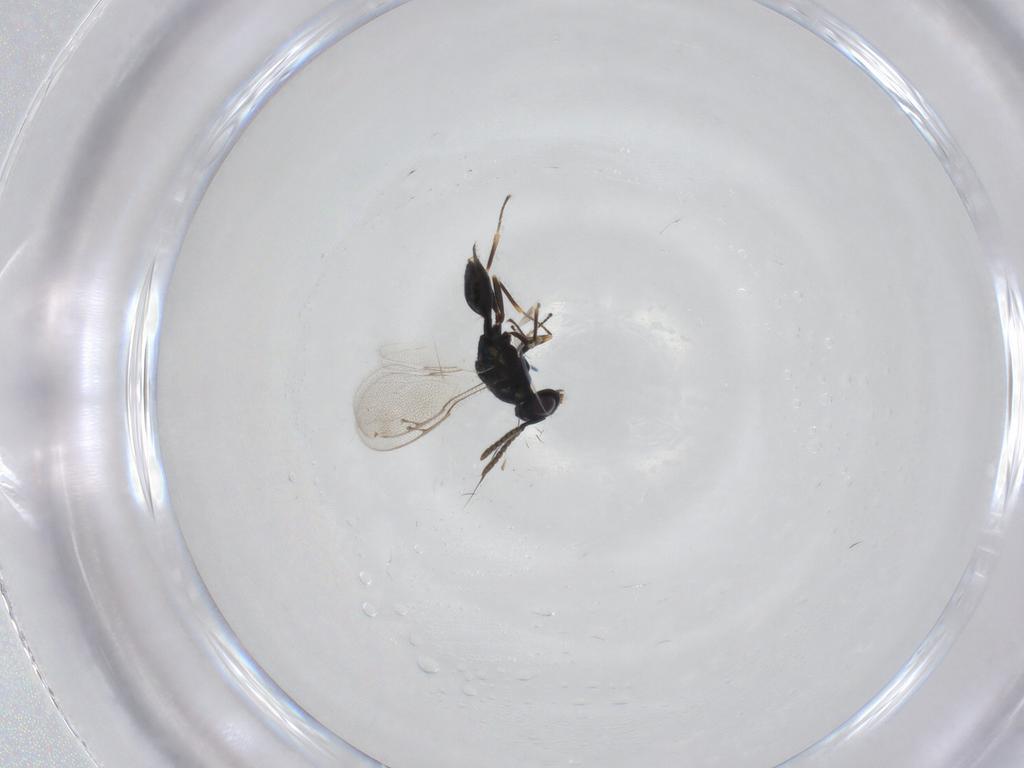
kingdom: Animalia
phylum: Arthropoda
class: Insecta
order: Hymenoptera
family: Pteromalidae
